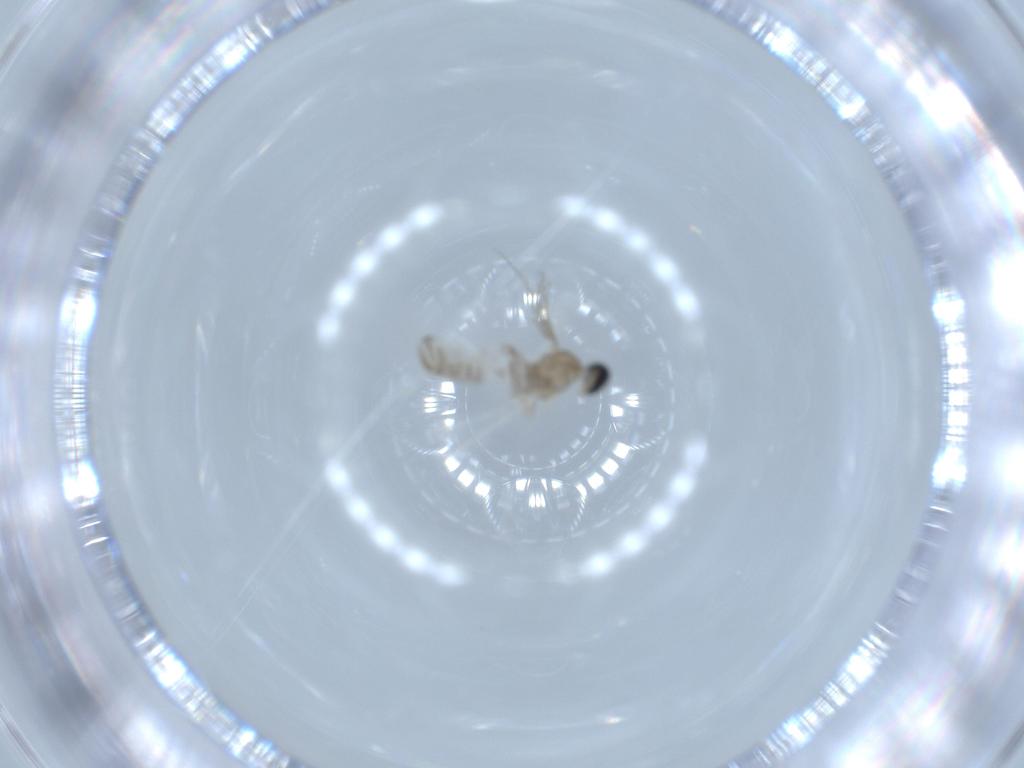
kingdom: Animalia
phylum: Arthropoda
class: Insecta
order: Diptera
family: Cecidomyiidae
